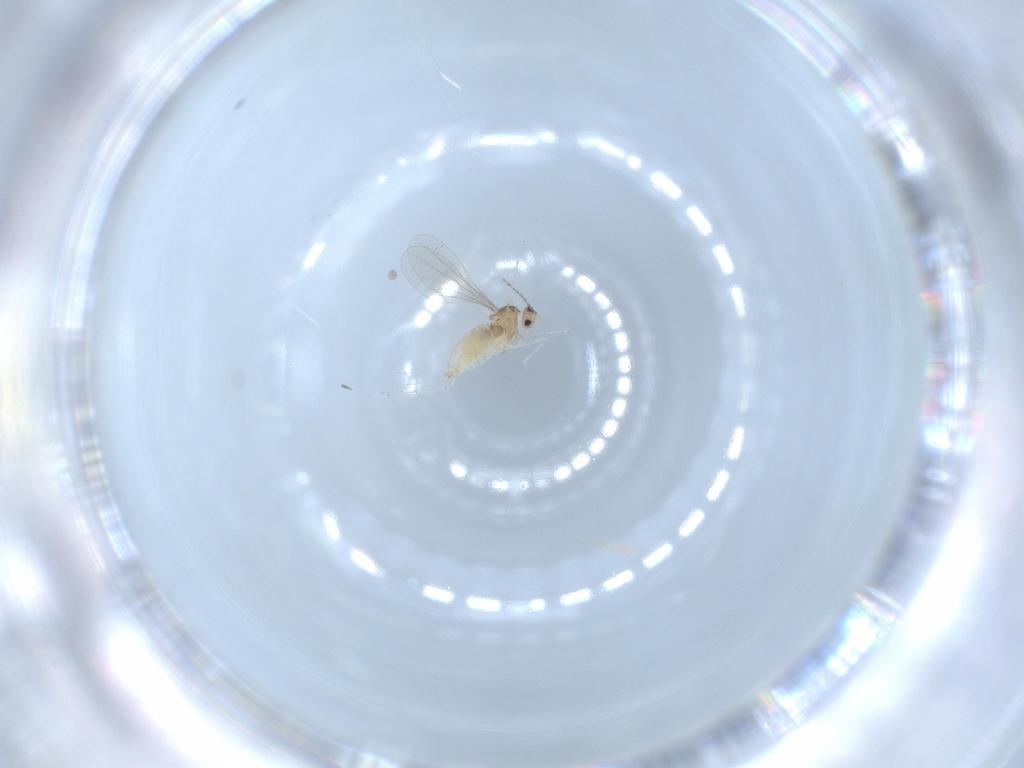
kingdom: Animalia
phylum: Arthropoda
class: Insecta
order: Diptera
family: Cecidomyiidae
